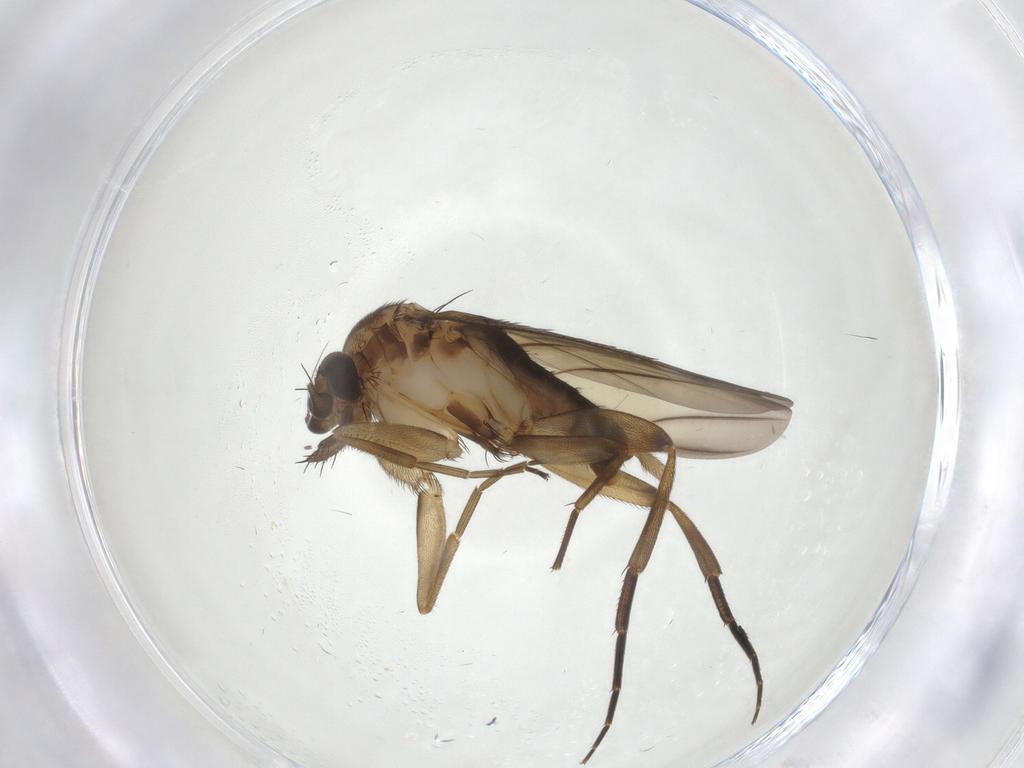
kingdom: Animalia
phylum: Arthropoda
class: Insecta
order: Diptera
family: Phoridae
